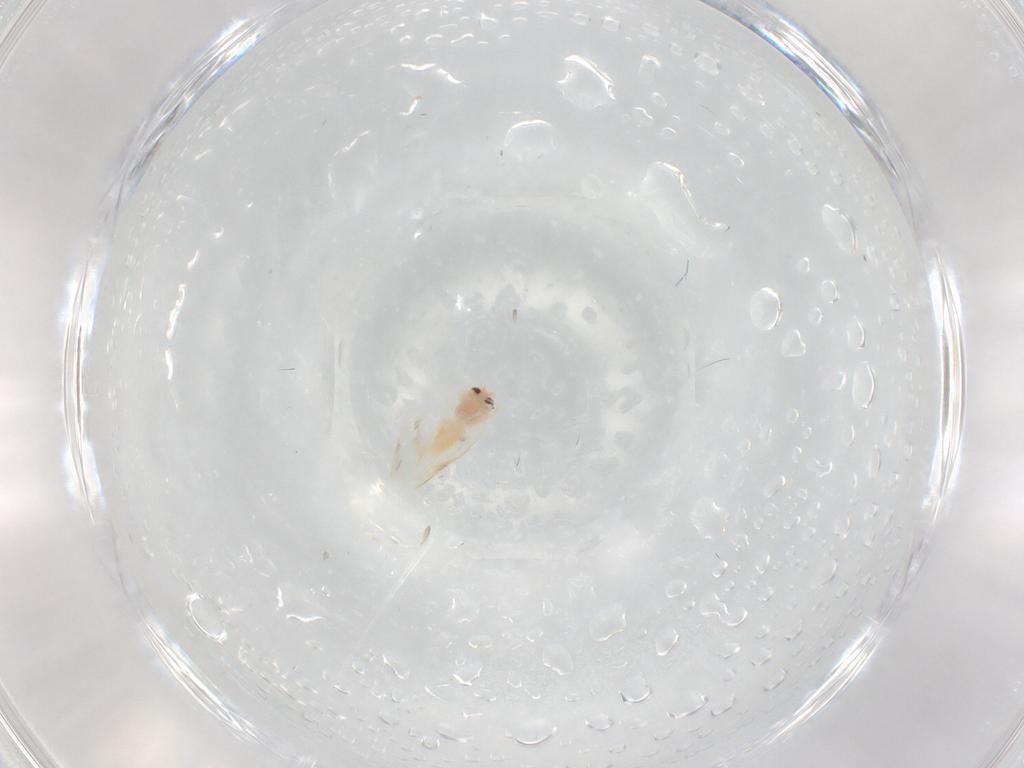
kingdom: Animalia
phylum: Arthropoda
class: Insecta
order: Hemiptera
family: Aleyrodidae
